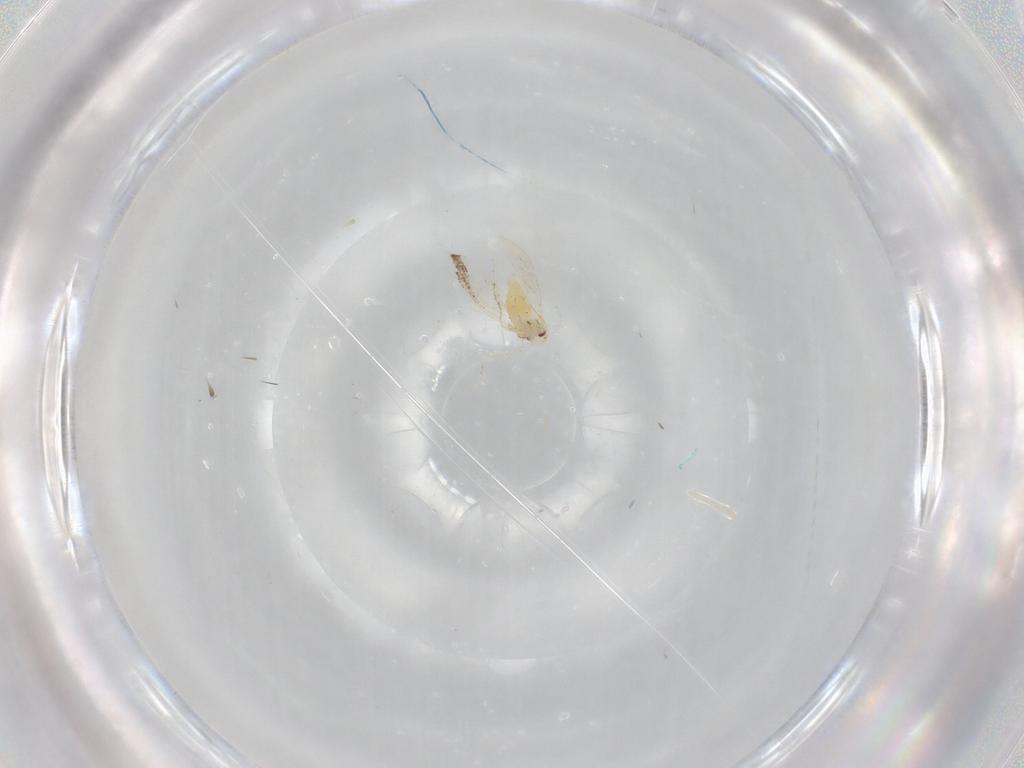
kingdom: Animalia
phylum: Arthropoda
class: Insecta
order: Hemiptera
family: Aleyrodidae
